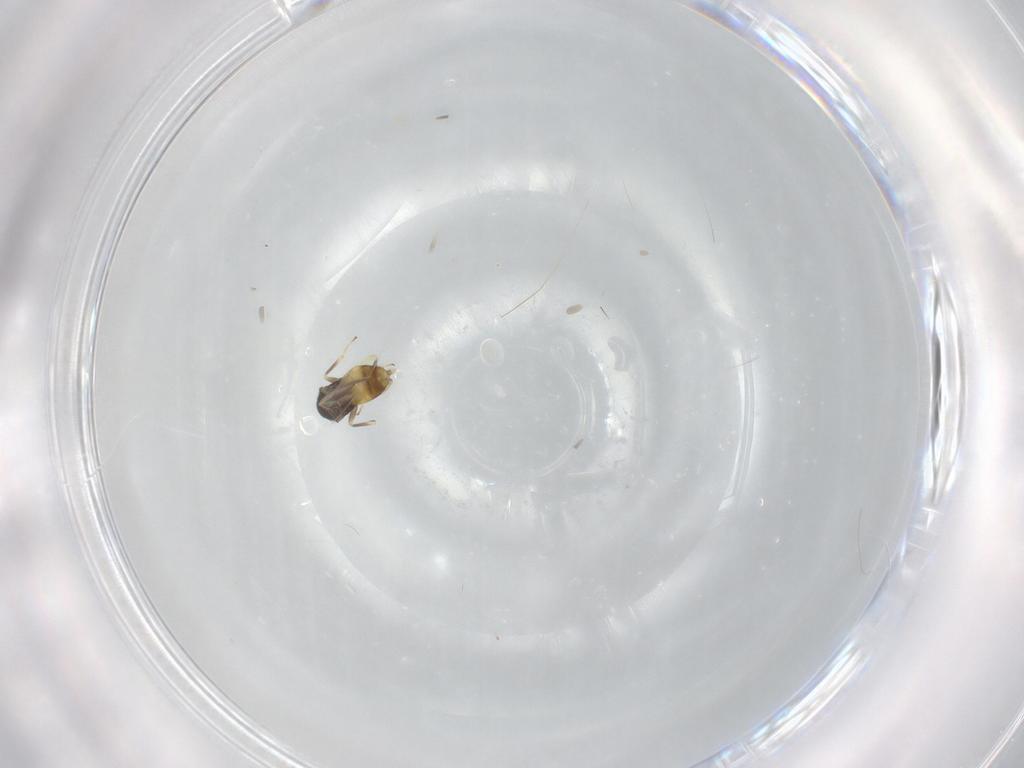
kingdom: Animalia
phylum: Arthropoda
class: Insecta
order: Hymenoptera
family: Aphelinidae
